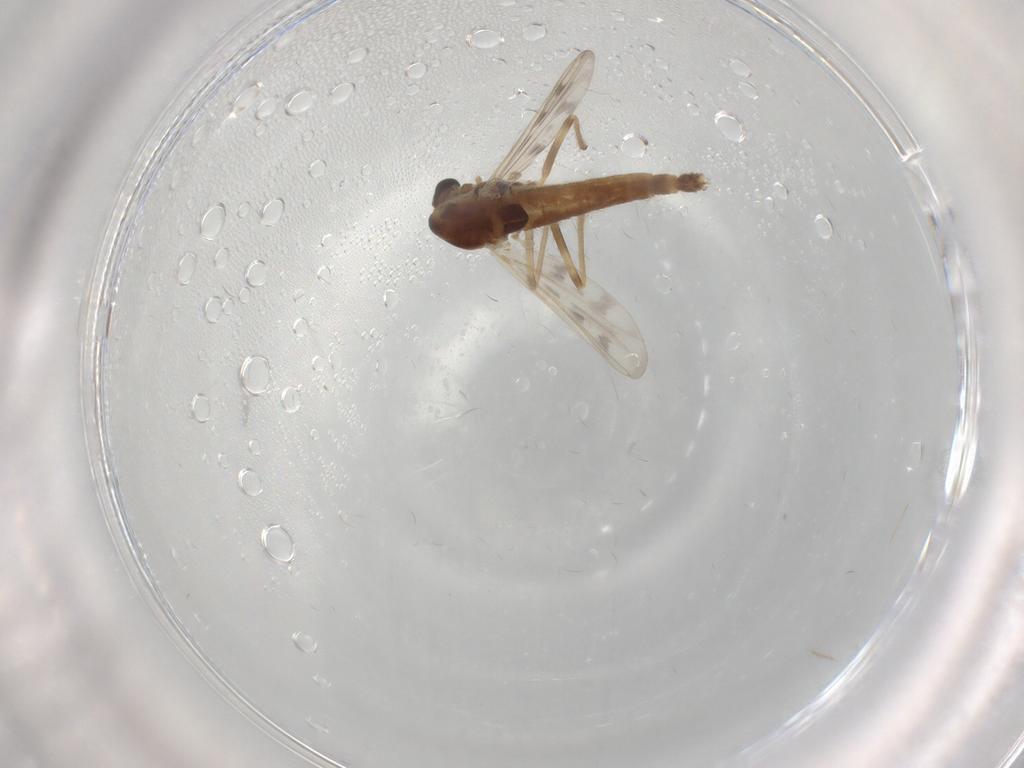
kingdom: Animalia
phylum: Arthropoda
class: Insecta
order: Diptera
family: Chironomidae
